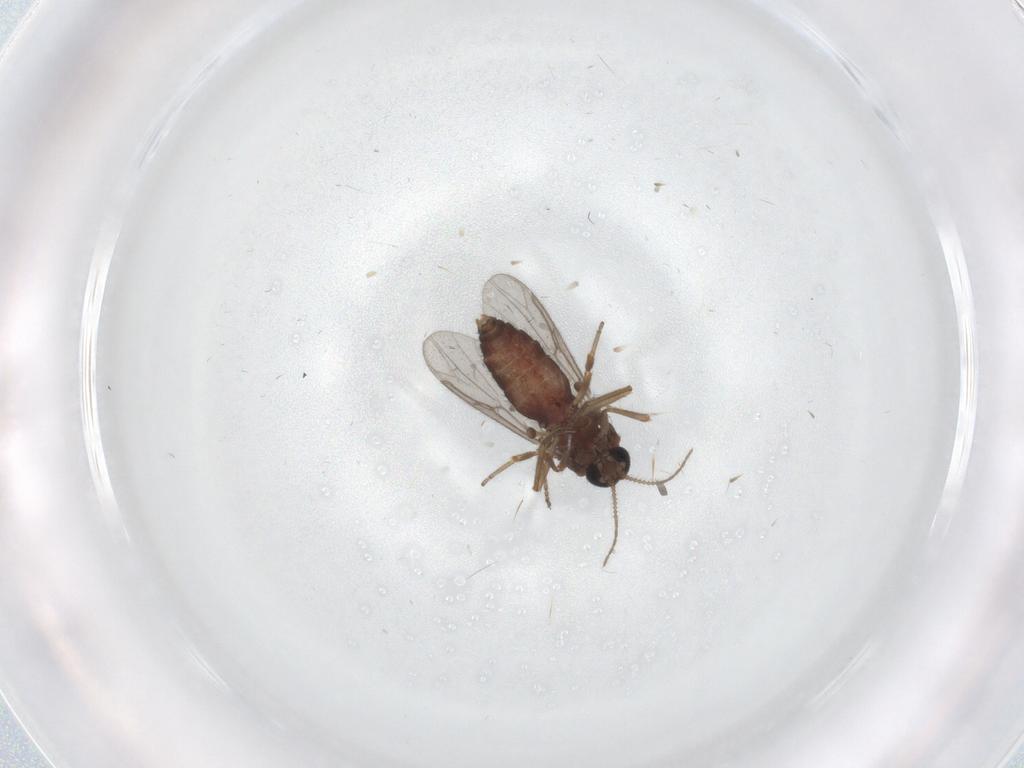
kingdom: Animalia
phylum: Arthropoda
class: Insecta
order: Diptera
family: Ceratopogonidae
